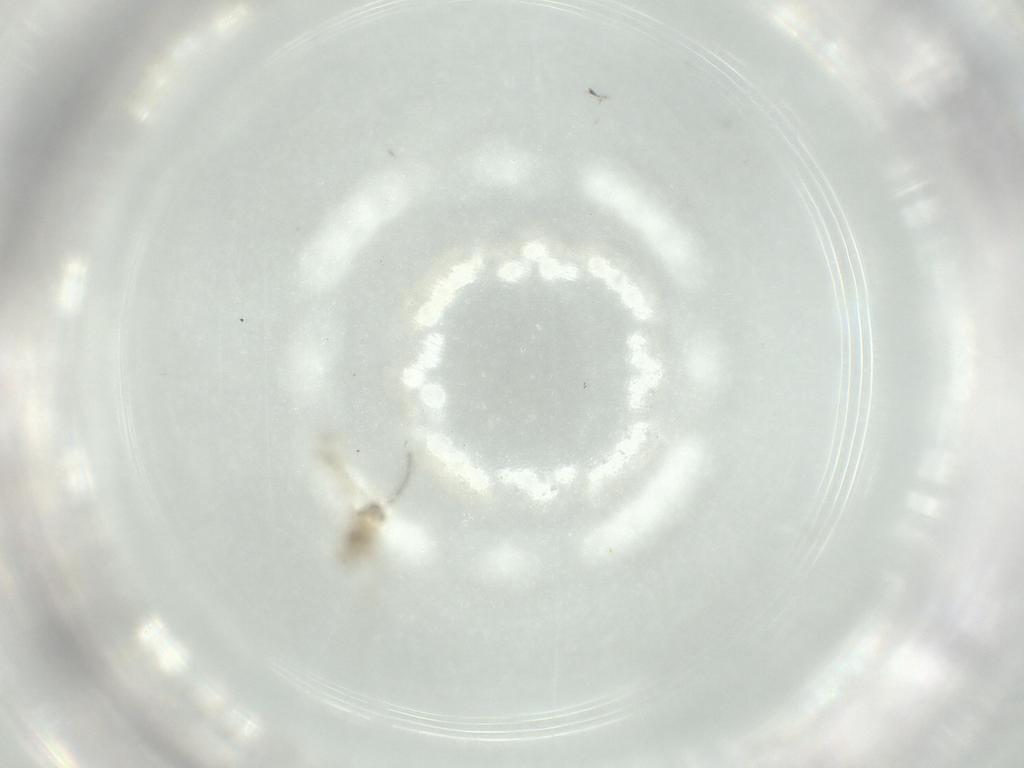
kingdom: Animalia
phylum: Arthropoda
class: Insecta
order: Diptera
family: Cecidomyiidae
